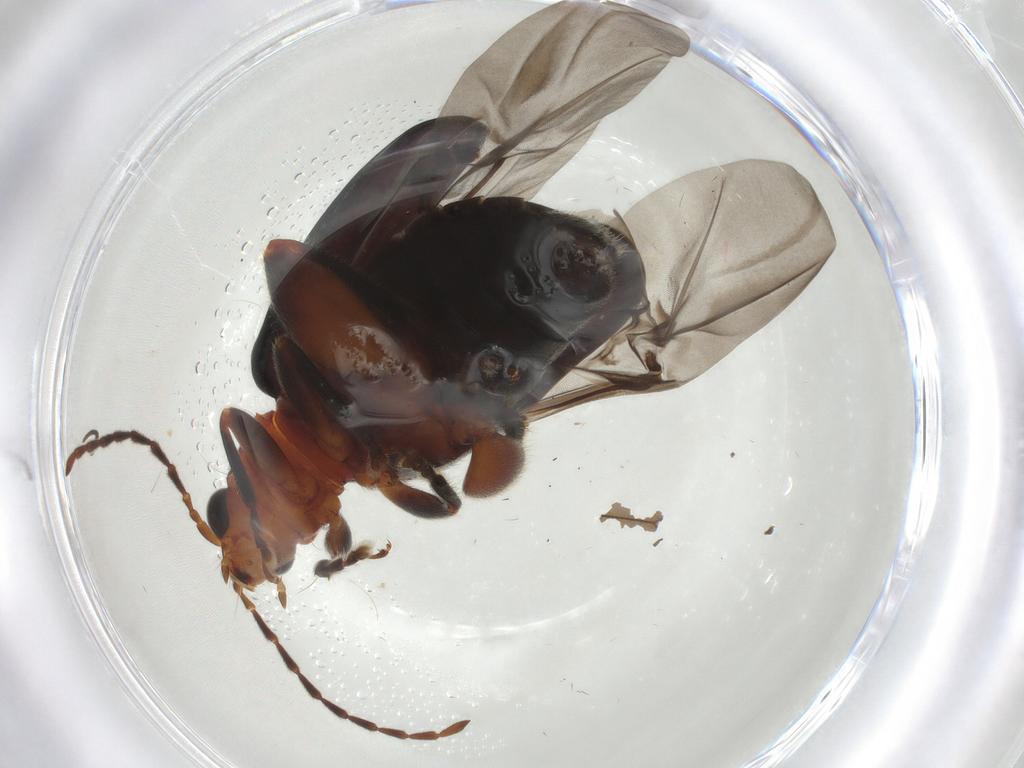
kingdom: Animalia
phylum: Arthropoda
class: Insecta
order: Coleoptera
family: Chrysomelidae
